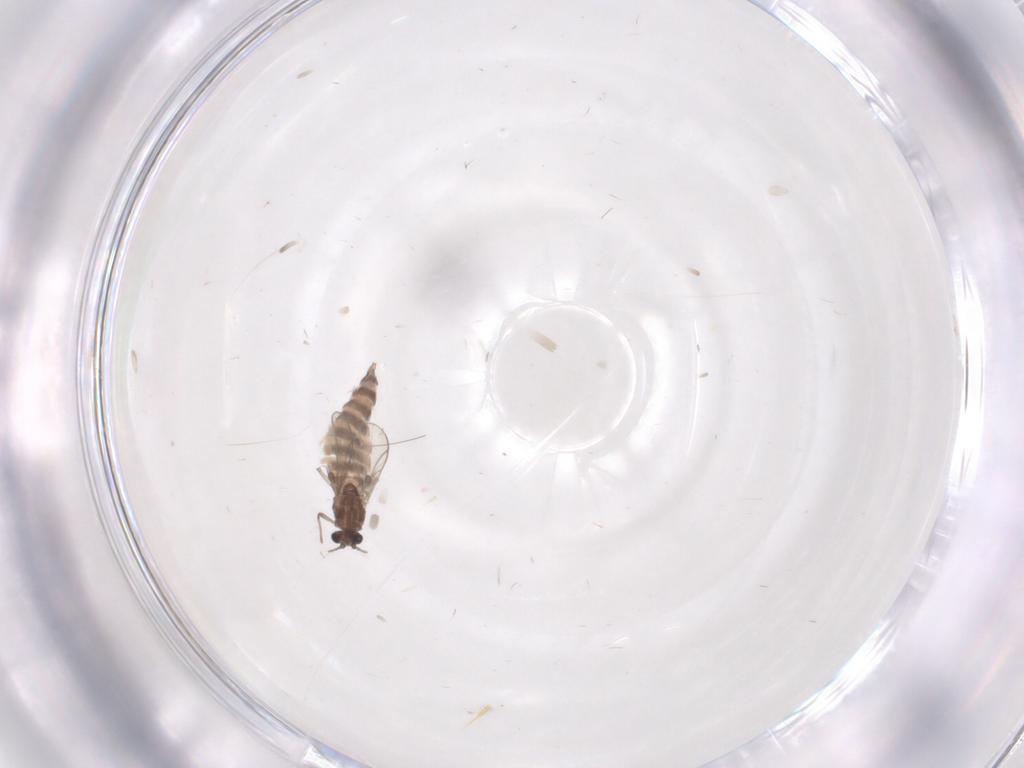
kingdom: Animalia
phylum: Arthropoda
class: Insecta
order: Diptera
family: Chironomidae
